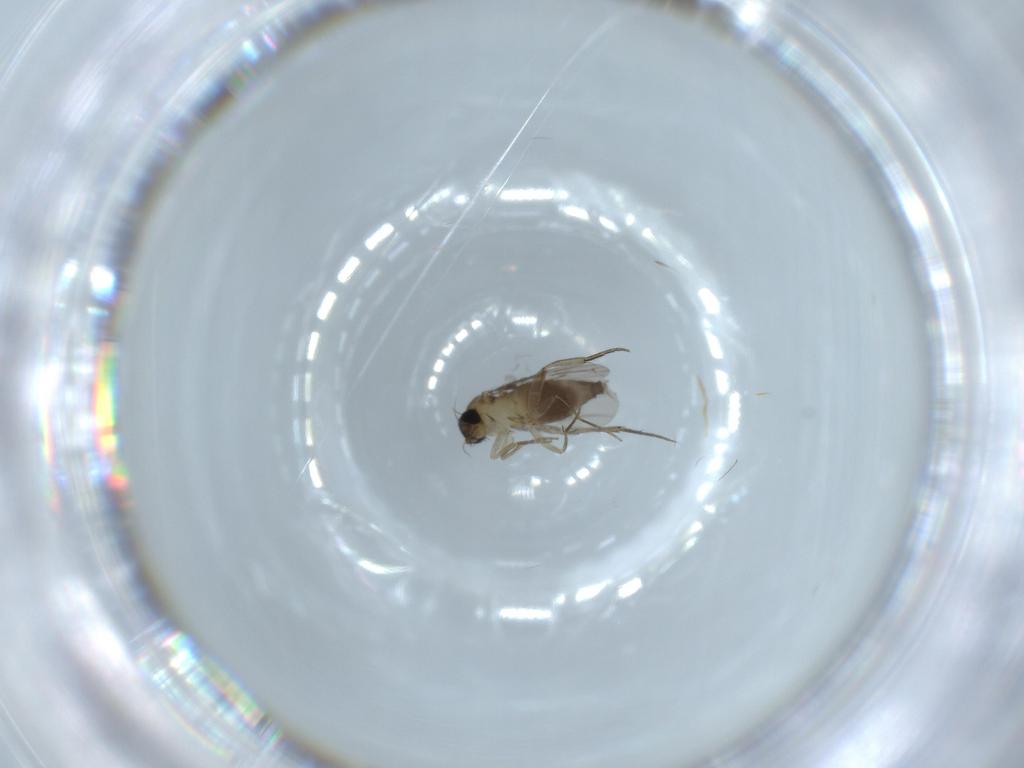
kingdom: Animalia
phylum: Arthropoda
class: Insecta
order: Diptera
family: Phoridae
